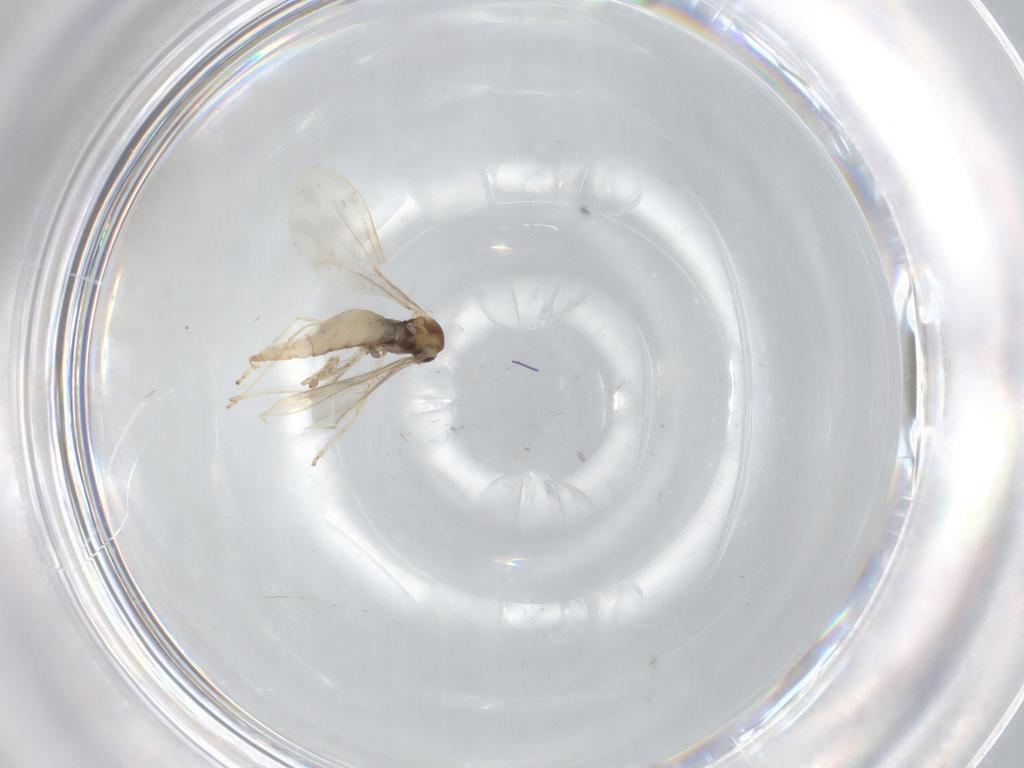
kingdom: Animalia
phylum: Arthropoda
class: Insecta
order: Diptera
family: Cecidomyiidae
